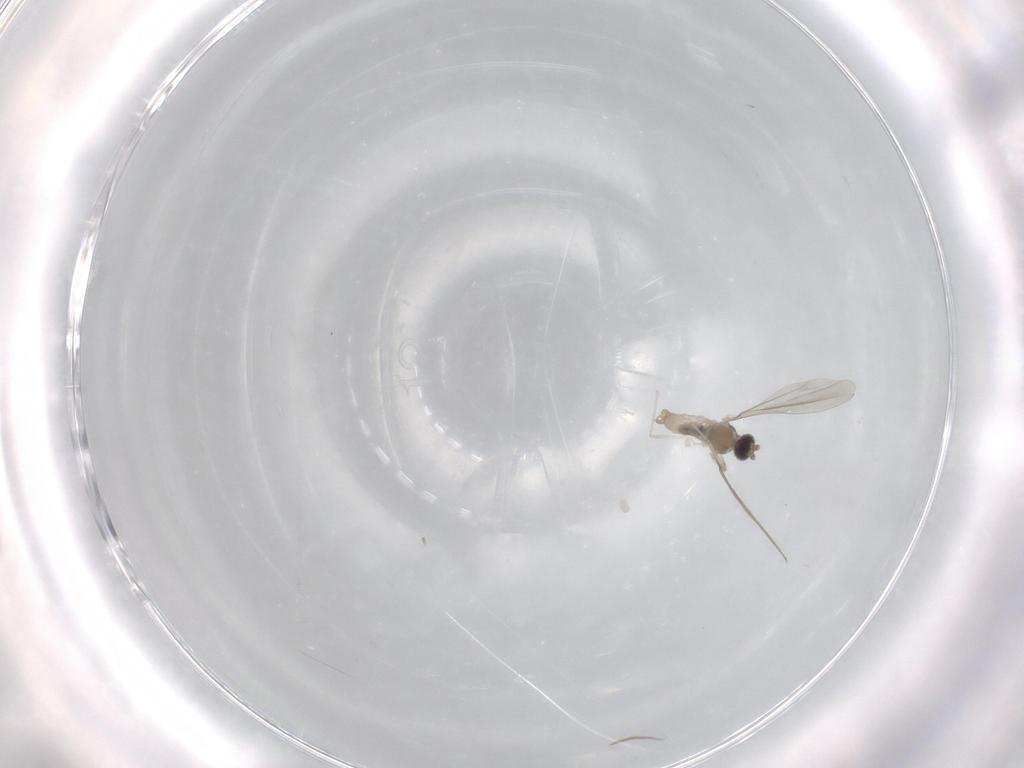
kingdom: Animalia
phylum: Arthropoda
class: Insecta
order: Diptera
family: Cecidomyiidae
